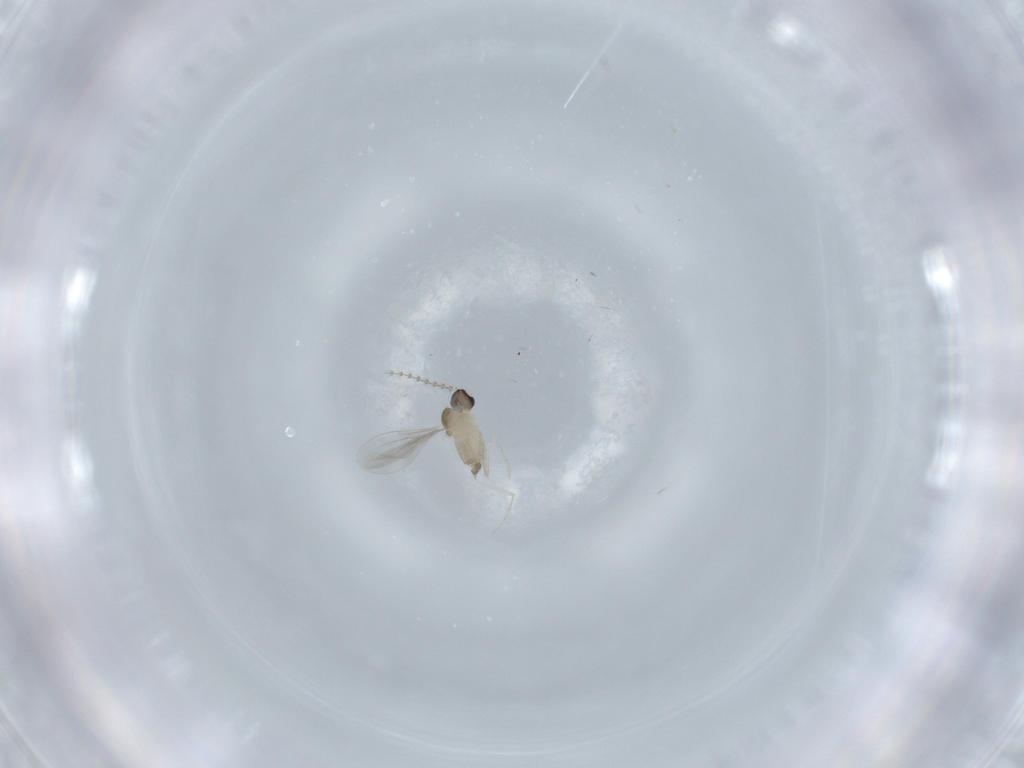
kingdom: Animalia
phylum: Arthropoda
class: Insecta
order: Diptera
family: Cecidomyiidae
